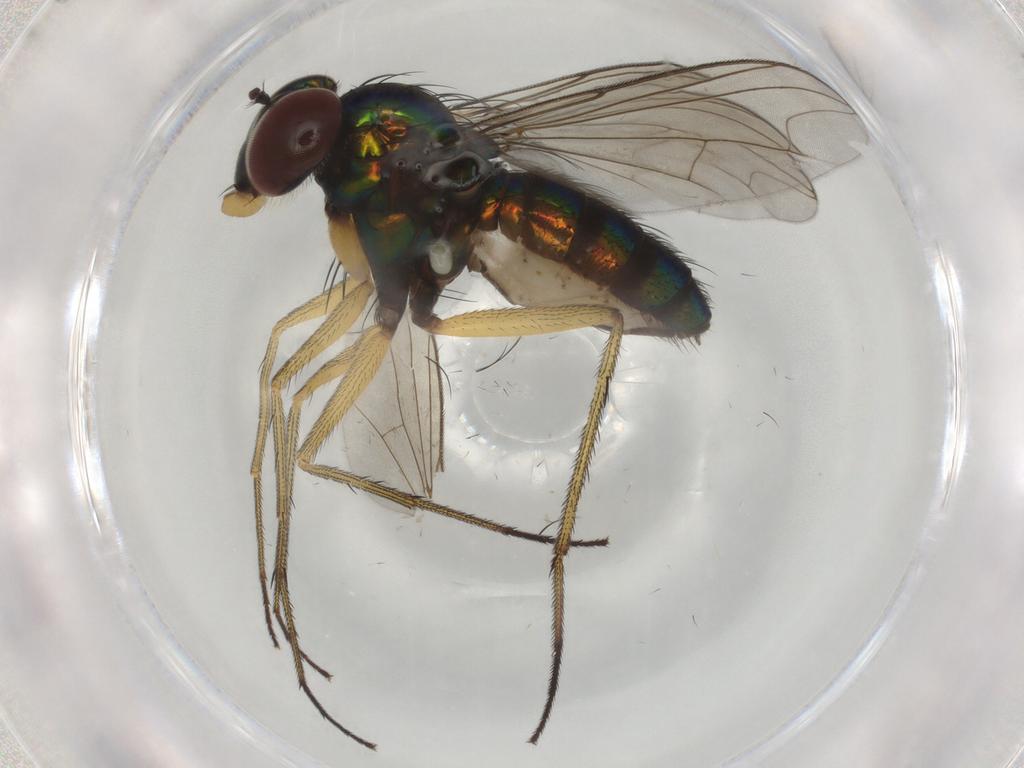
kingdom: Animalia
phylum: Arthropoda
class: Insecta
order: Diptera
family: Dolichopodidae
